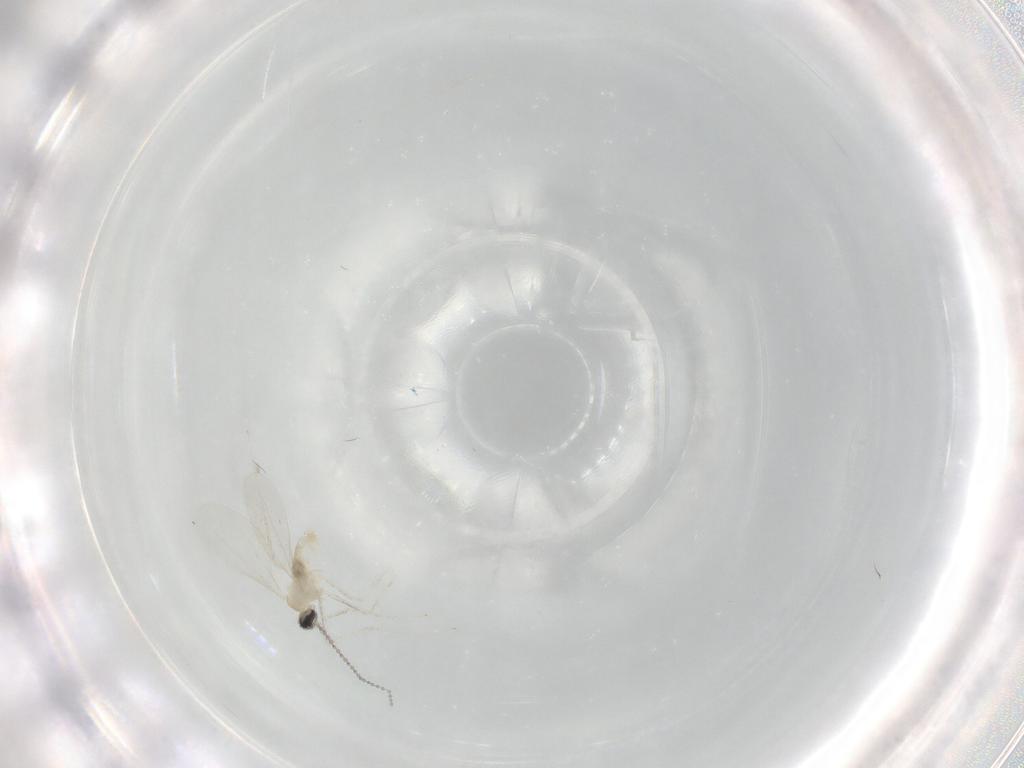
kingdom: Animalia
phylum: Arthropoda
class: Insecta
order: Diptera
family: Cecidomyiidae
